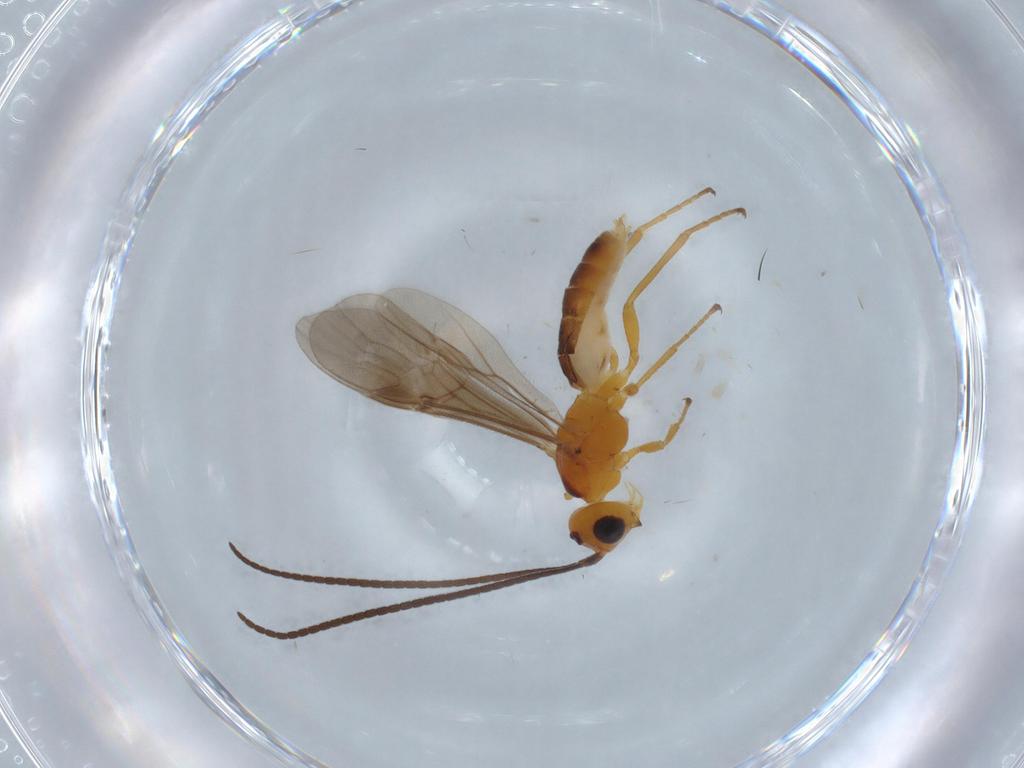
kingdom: Animalia
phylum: Arthropoda
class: Insecta
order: Hymenoptera
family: Braconidae
